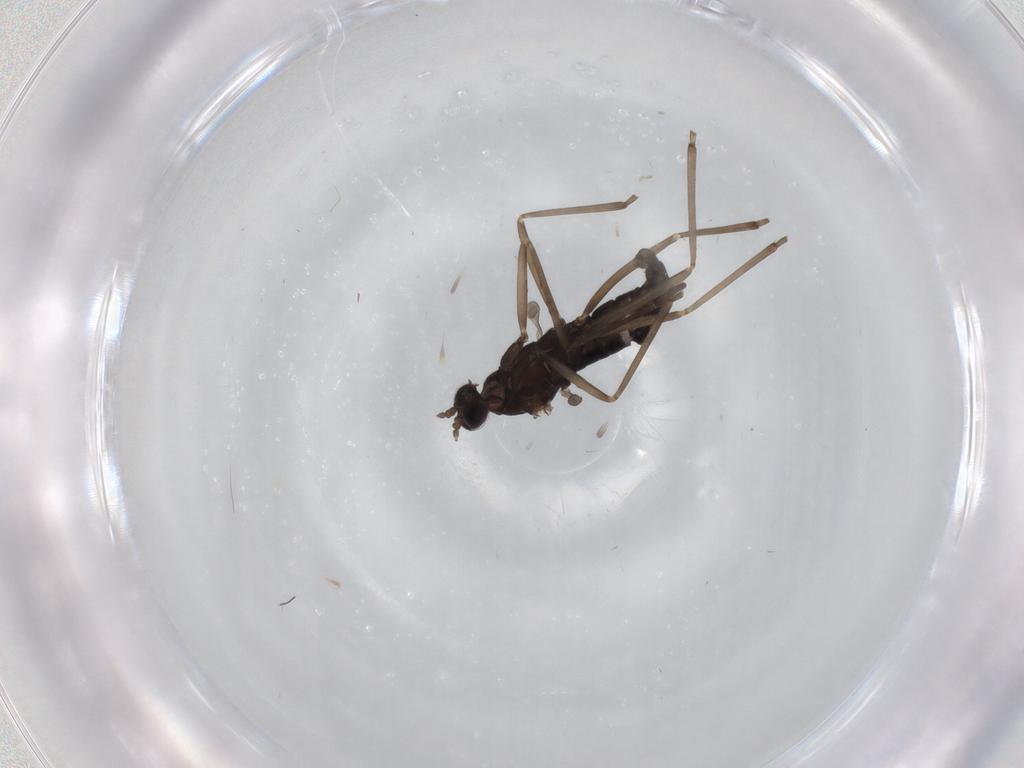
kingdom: Animalia
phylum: Arthropoda
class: Insecta
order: Diptera
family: Cecidomyiidae
